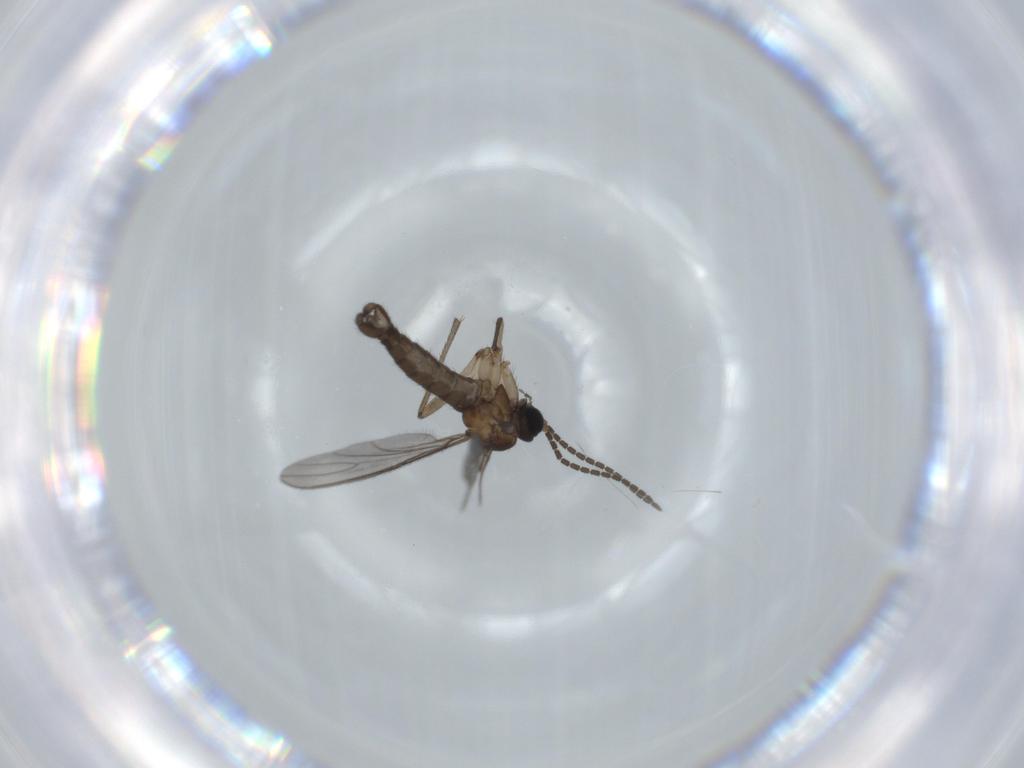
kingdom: Animalia
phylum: Arthropoda
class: Insecta
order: Diptera
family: Sciaridae
